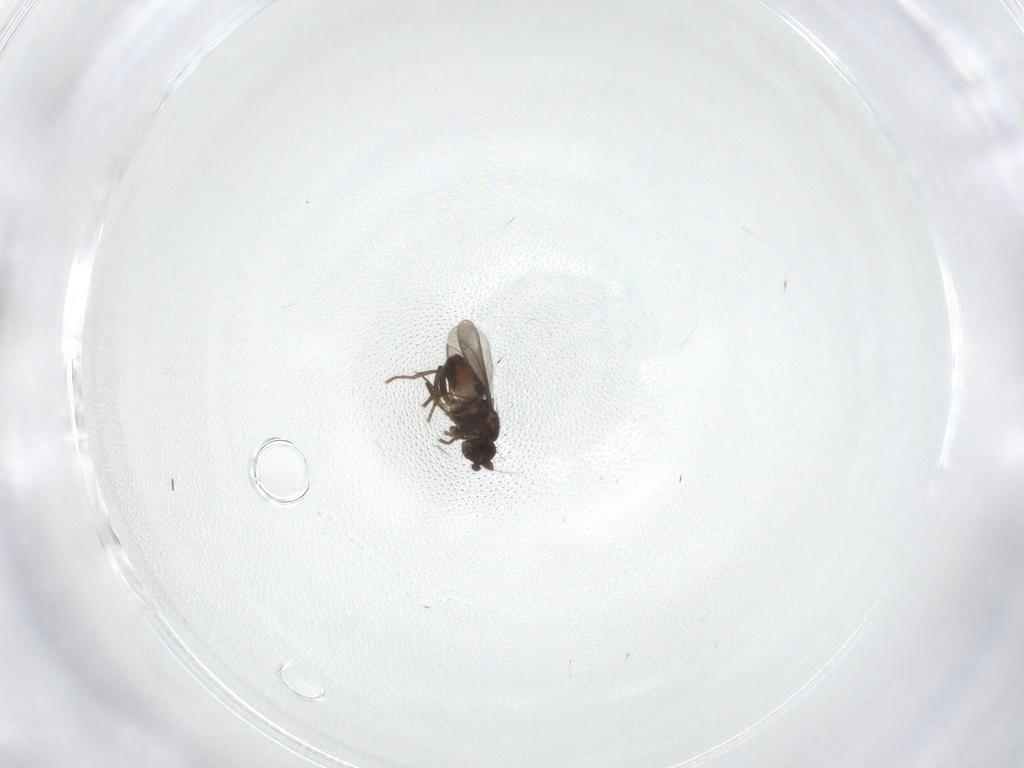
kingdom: Animalia
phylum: Arthropoda
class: Insecta
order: Diptera
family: Sphaeroceridae
